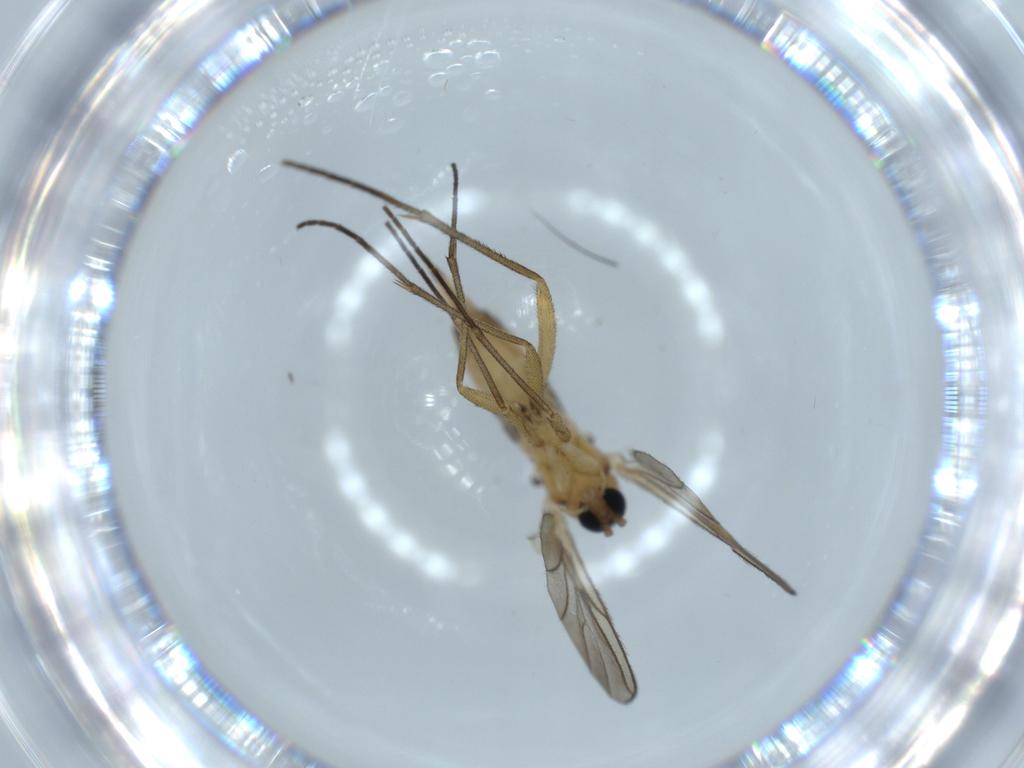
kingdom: Animalia
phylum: Arthropoda
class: Insecta
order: Diptera
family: Sciaridae
